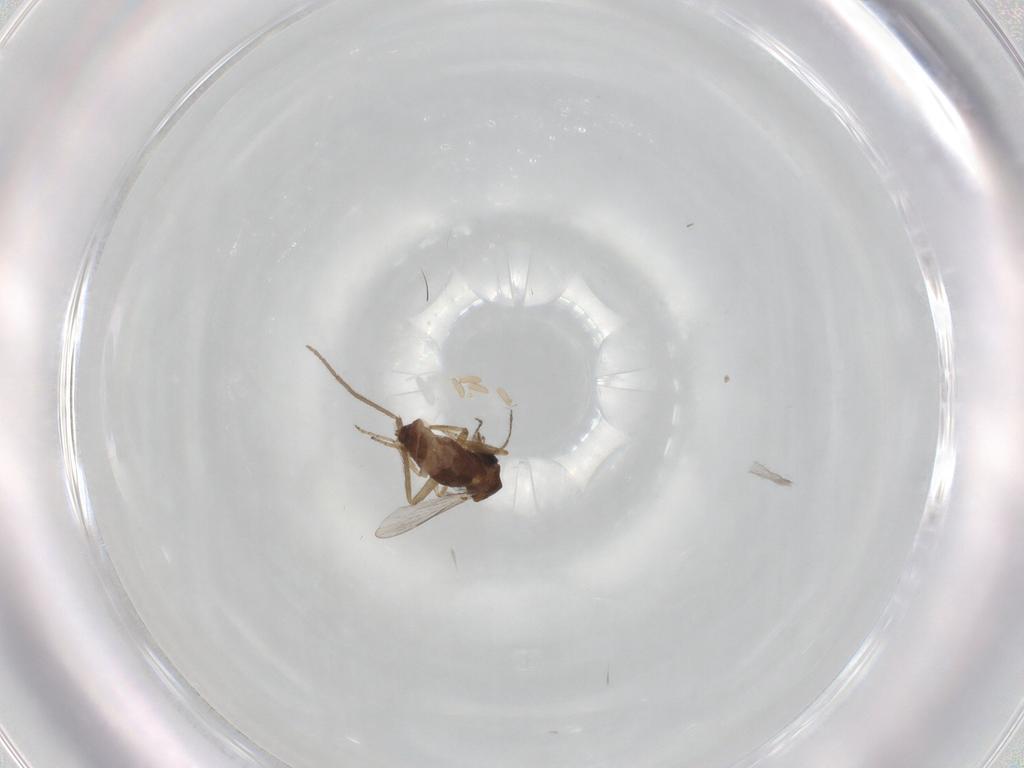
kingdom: Animalia
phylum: Arthropoda
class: Insecta
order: Diptera
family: Chironomidae
